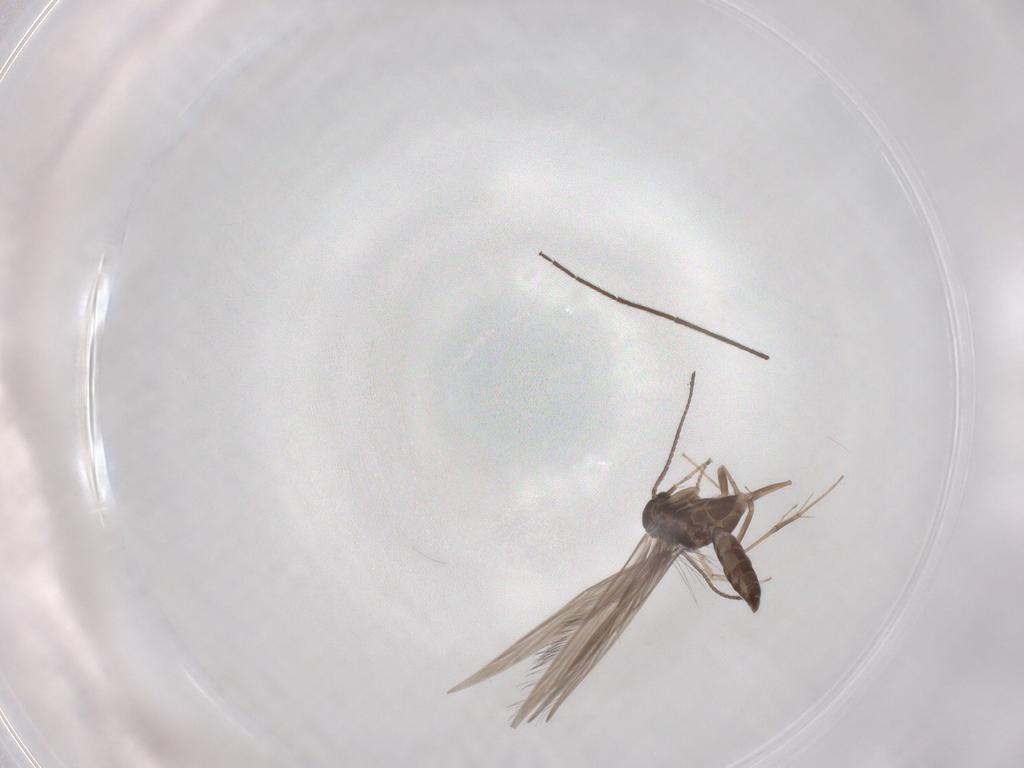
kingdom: Animalia
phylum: Arthropoda
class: Insecta
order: Trichoptera
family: Hydroptilidae
